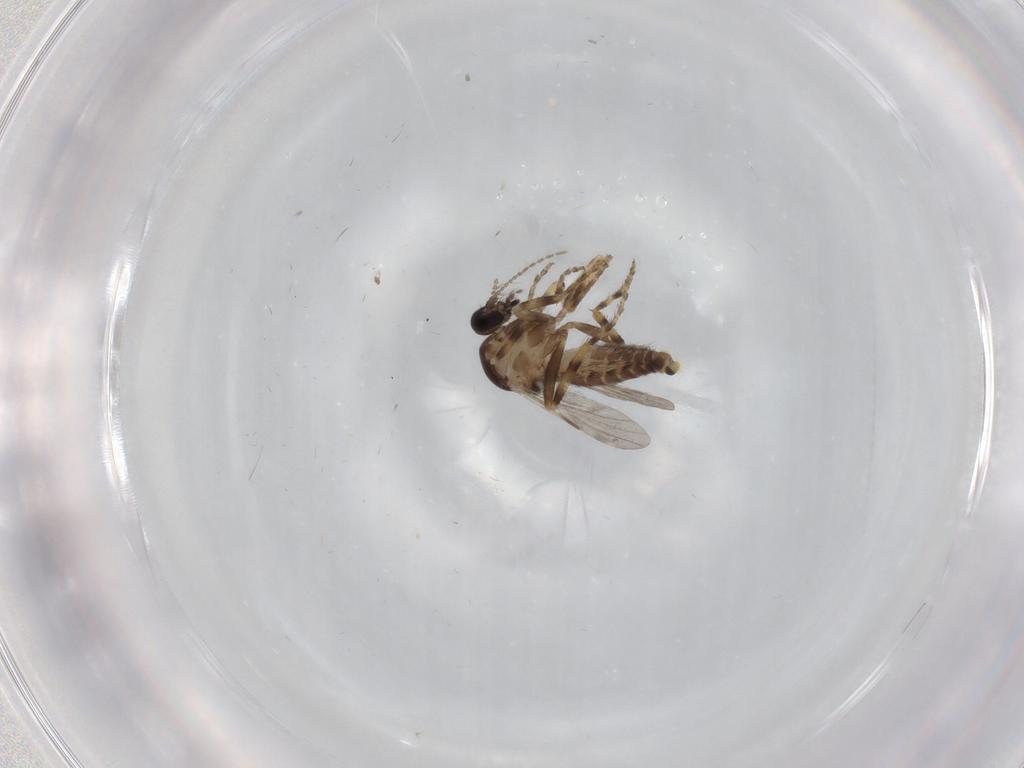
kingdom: Animalia
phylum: Arthropoda
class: Insecta
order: Diptera
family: Ceratopogonidae
